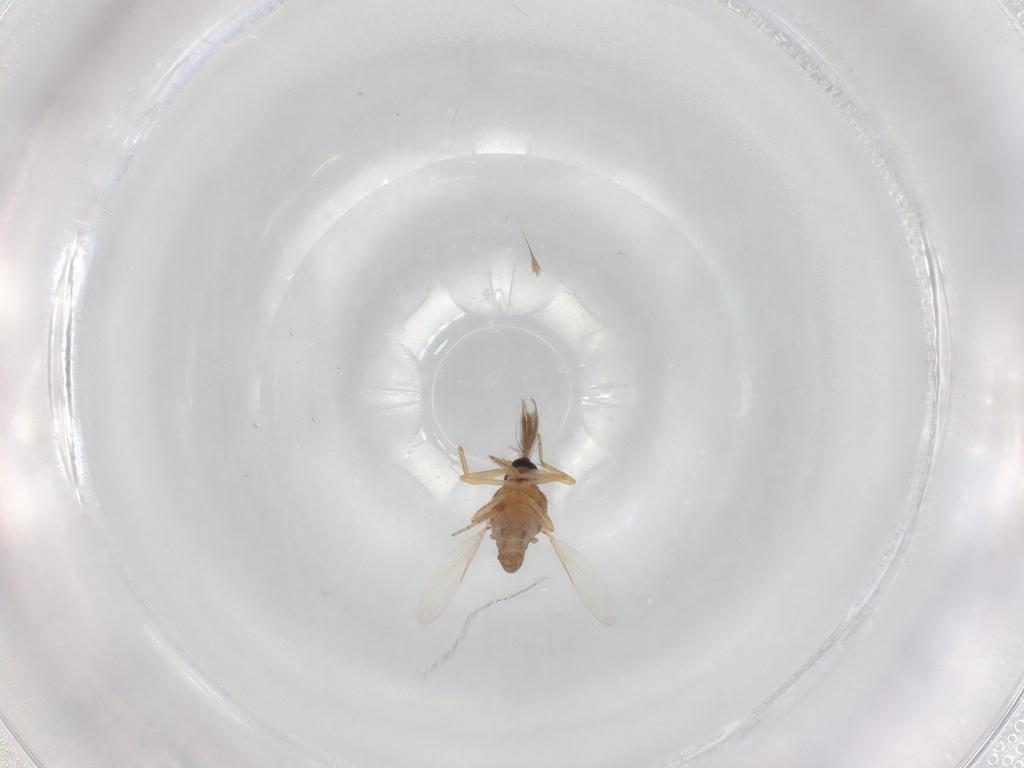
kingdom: Animalia
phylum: Arthropoda
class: Insecta
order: Diptera
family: Ceratopogonidae
